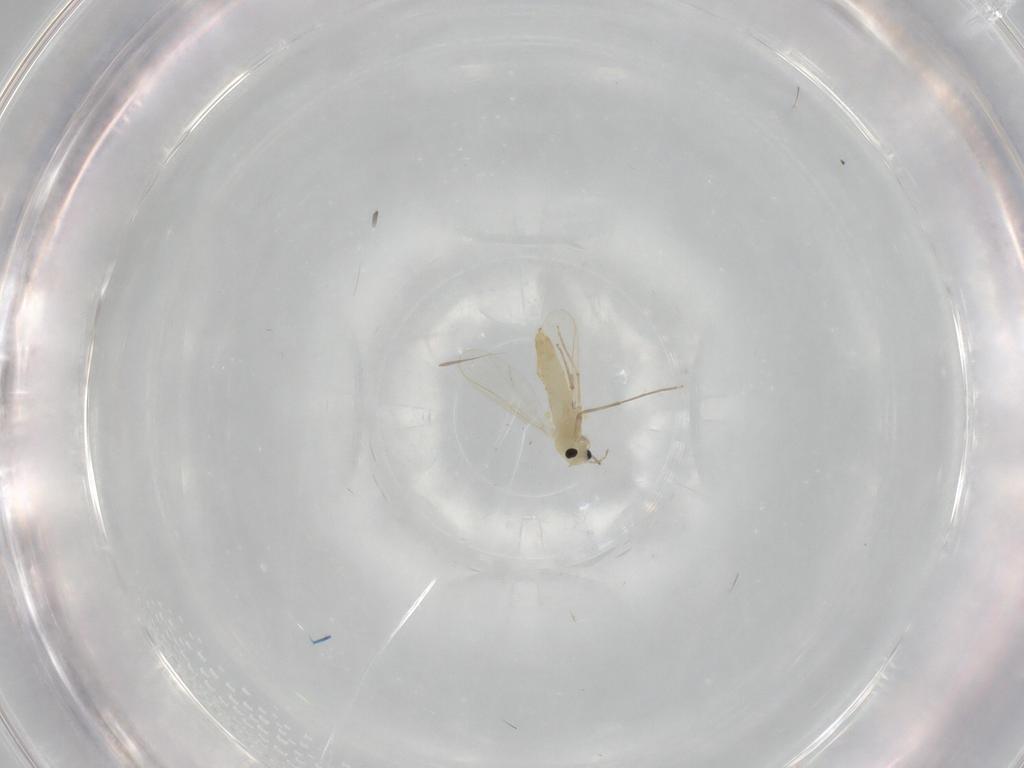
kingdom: Animalia
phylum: Arthropoda
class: Insecta
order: Diptera
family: Chironomidae
